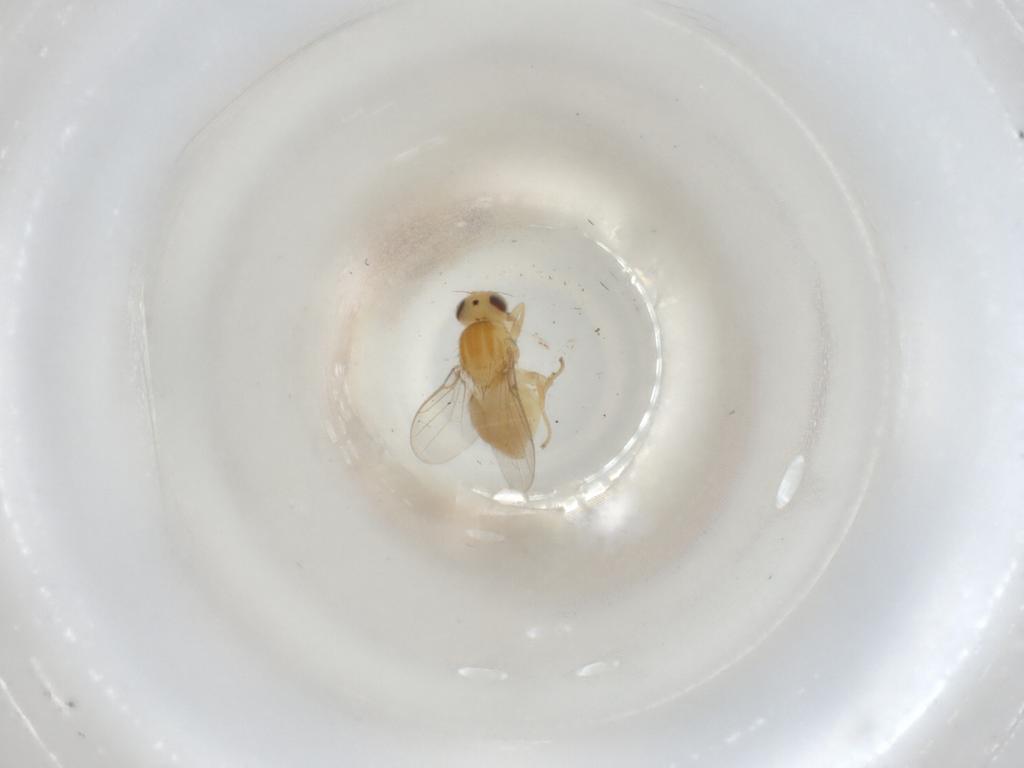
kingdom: Animalia
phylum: Arthropoda
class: Insecta
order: Diptera
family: Chloropidae
